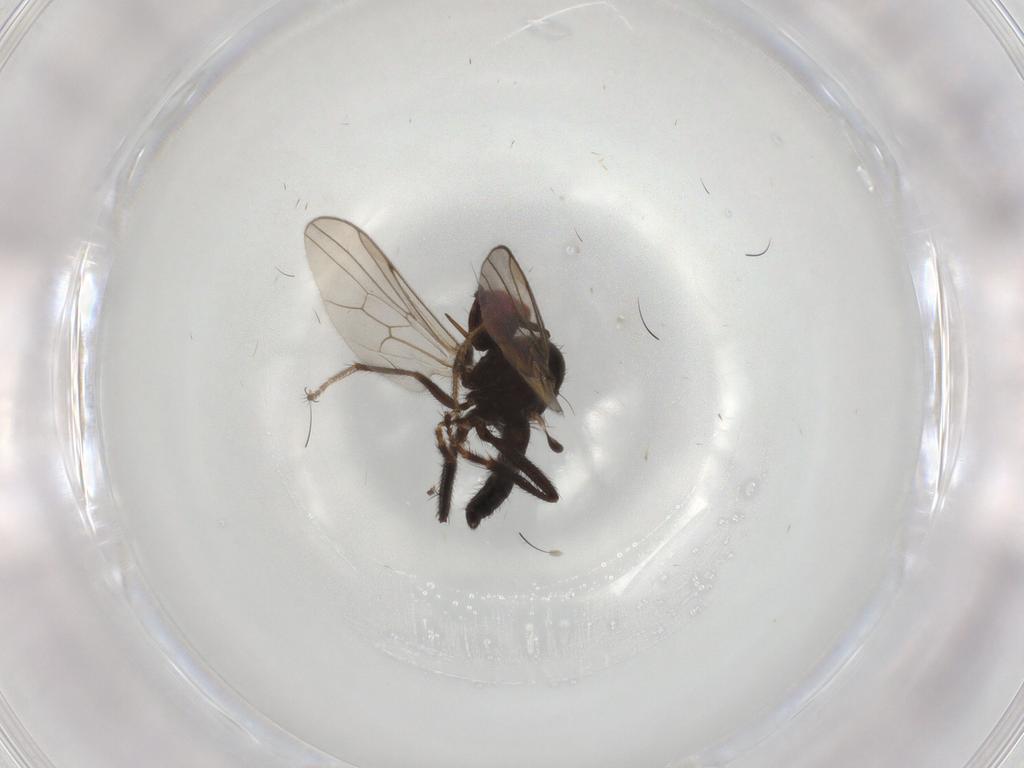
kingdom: Animalia
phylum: Arthropoda
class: Insecta
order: Diptera
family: Hybotidae
